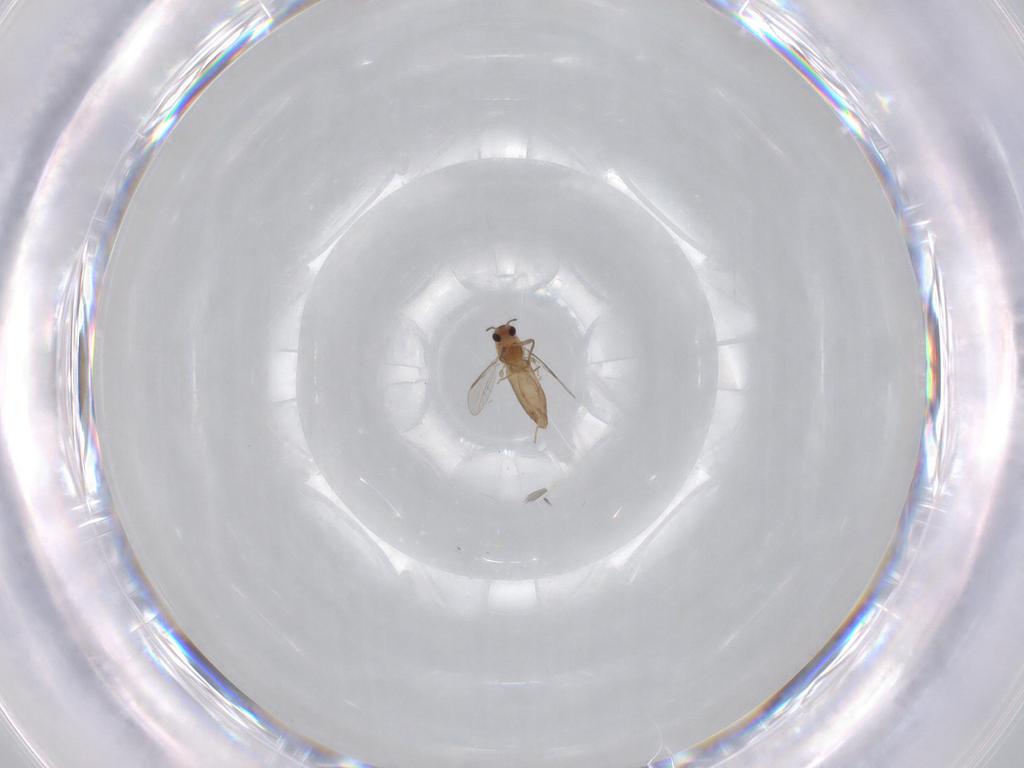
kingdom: Animalia
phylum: Arthropoda
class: Insecta
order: Diptera
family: Chironomidae
